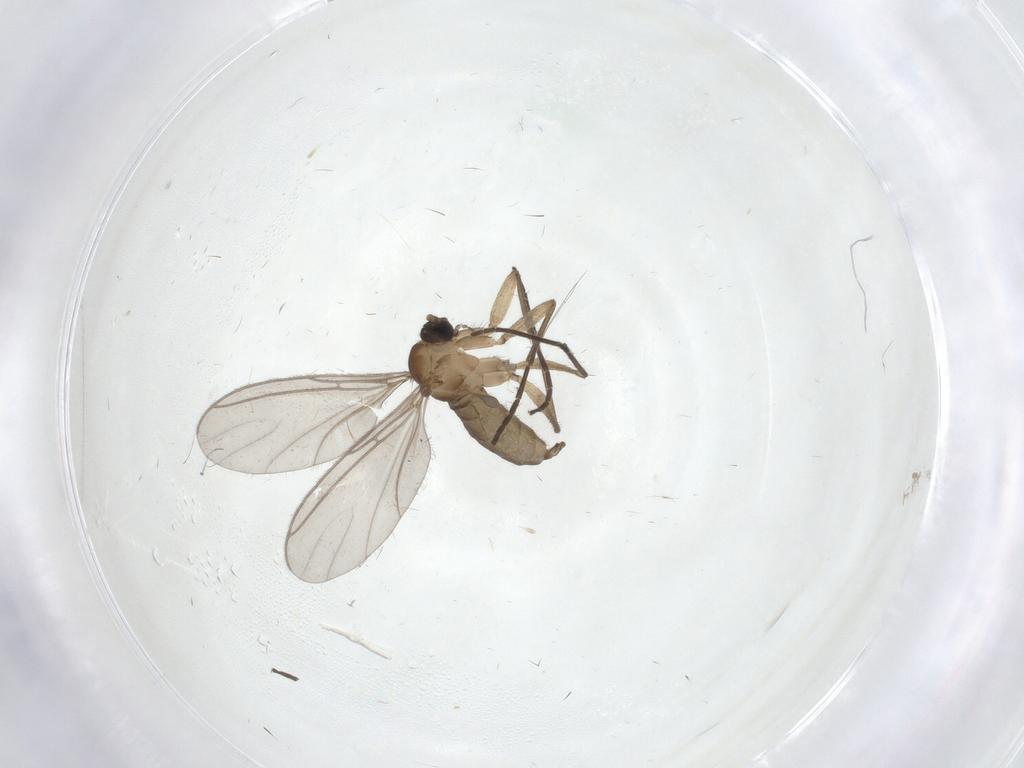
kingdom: Animalia
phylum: Arthropoda
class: Insecta
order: Diptera
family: Sciaridae
